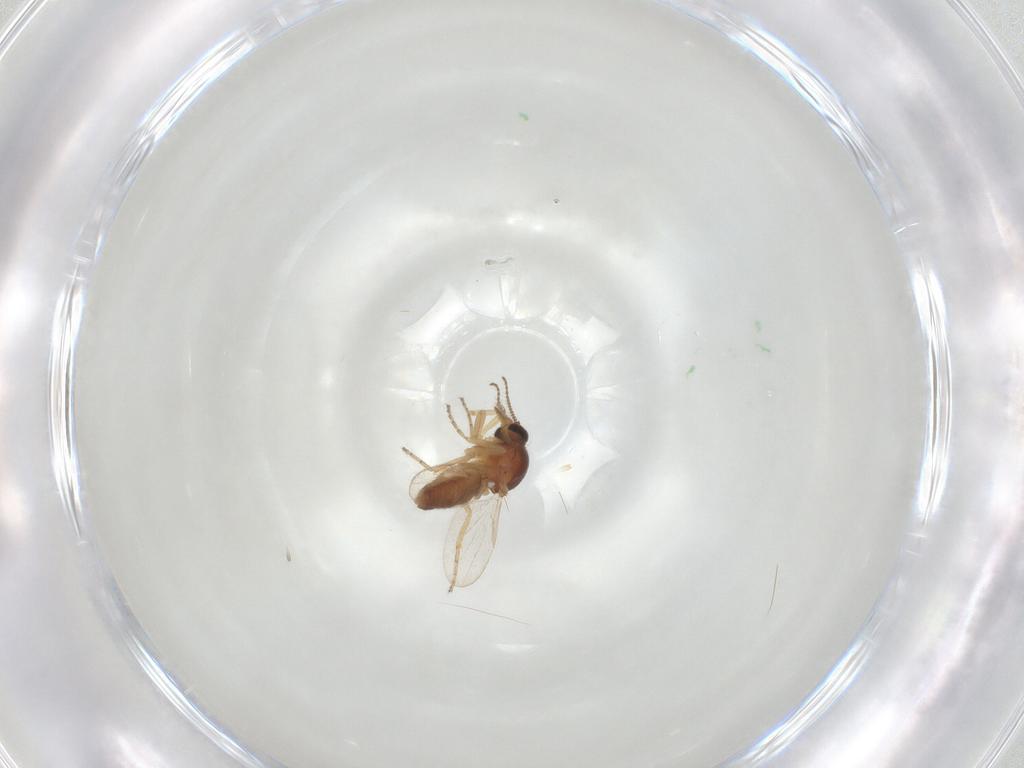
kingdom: Animalia
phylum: Arthropoda
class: Insecta
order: Diptera
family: Ceratopogonidae
